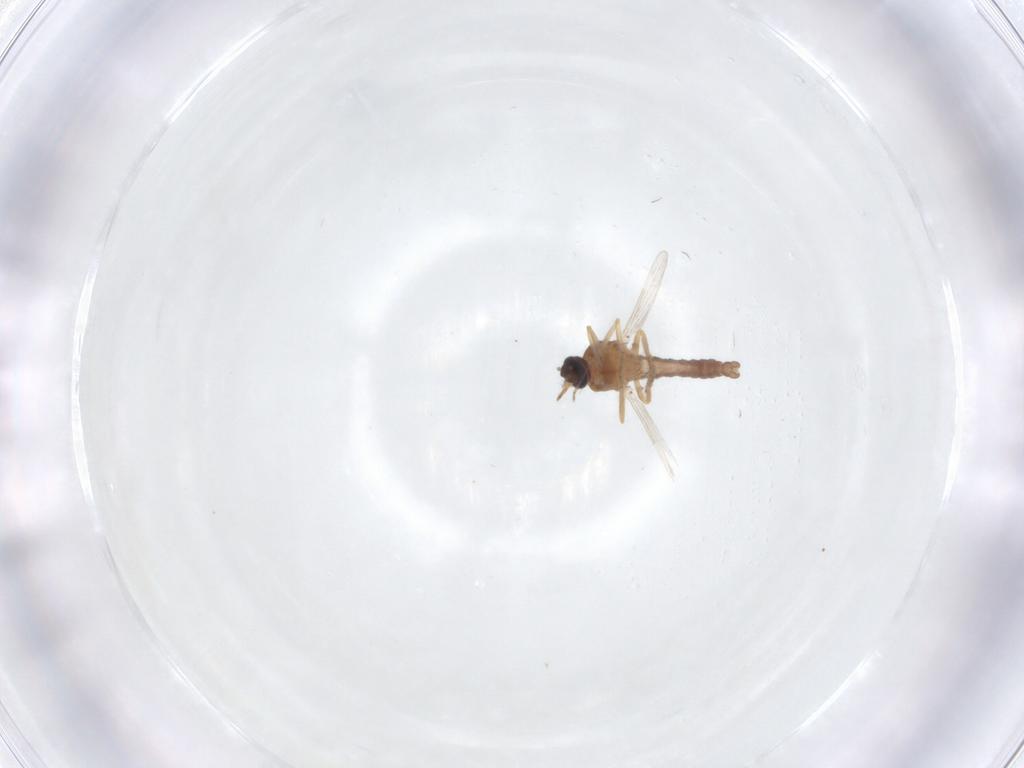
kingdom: Animalia
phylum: Arthropoda
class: Insecta
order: Diptera
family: Ceratopogonidae
